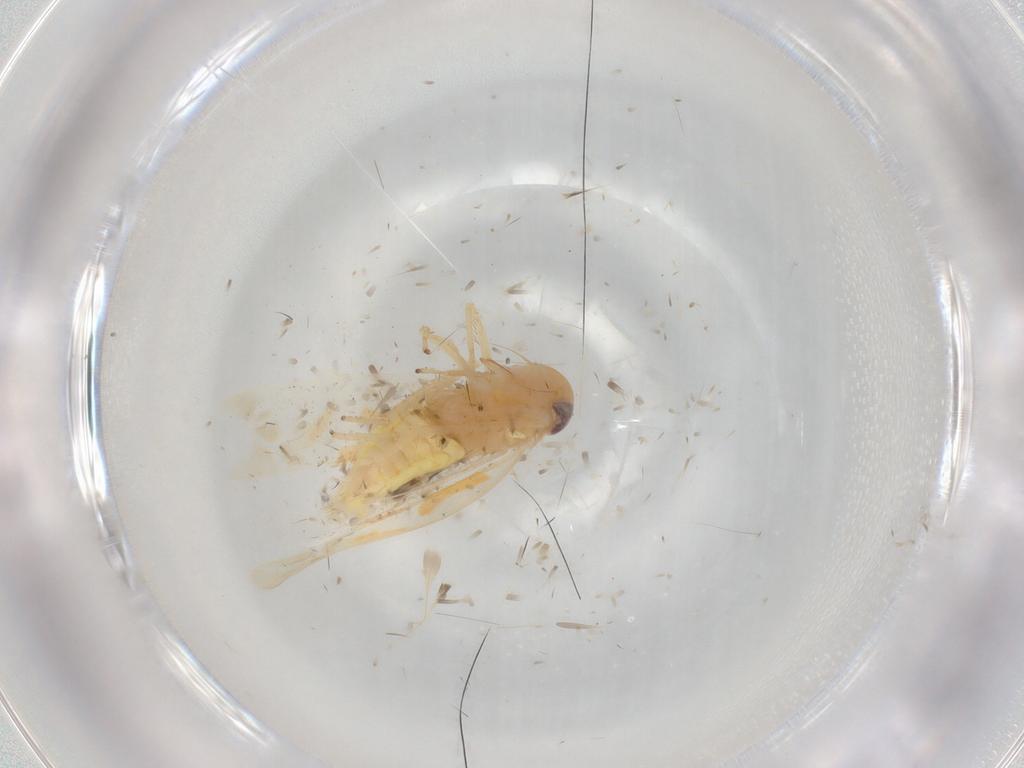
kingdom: Animalia
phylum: Arthropoda
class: Insecta
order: Hemiptera
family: Cicadellidae
